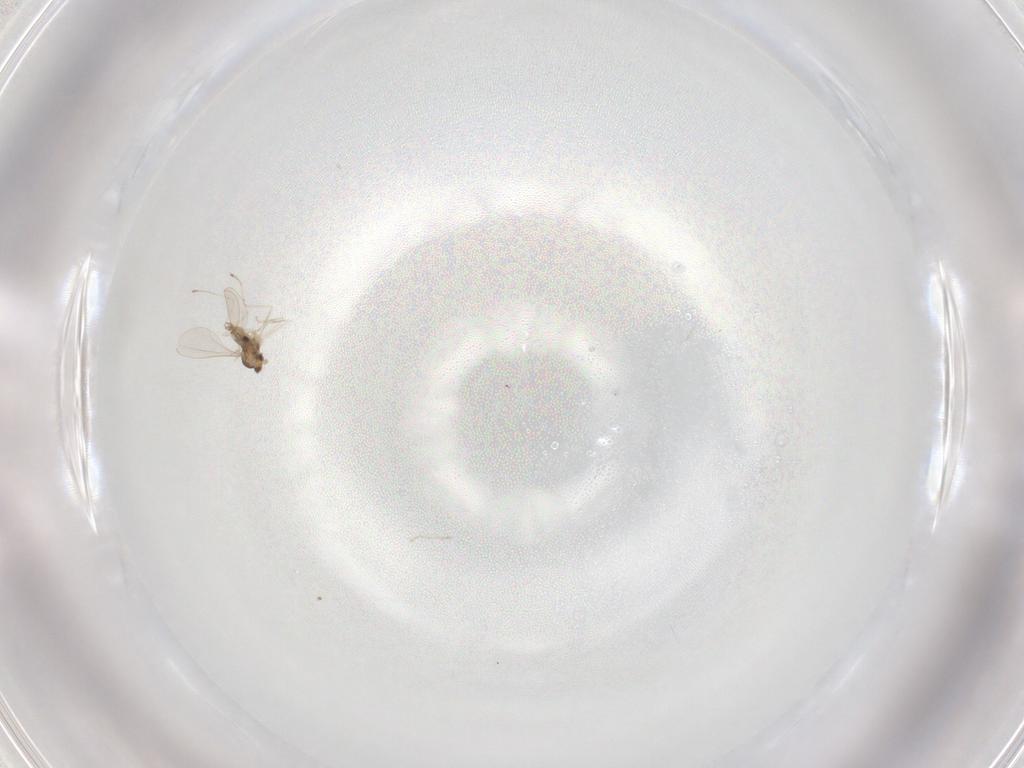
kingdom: Animalia
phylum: Arthropoda
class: Insecta
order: Diptera
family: Cecidomyiidae
